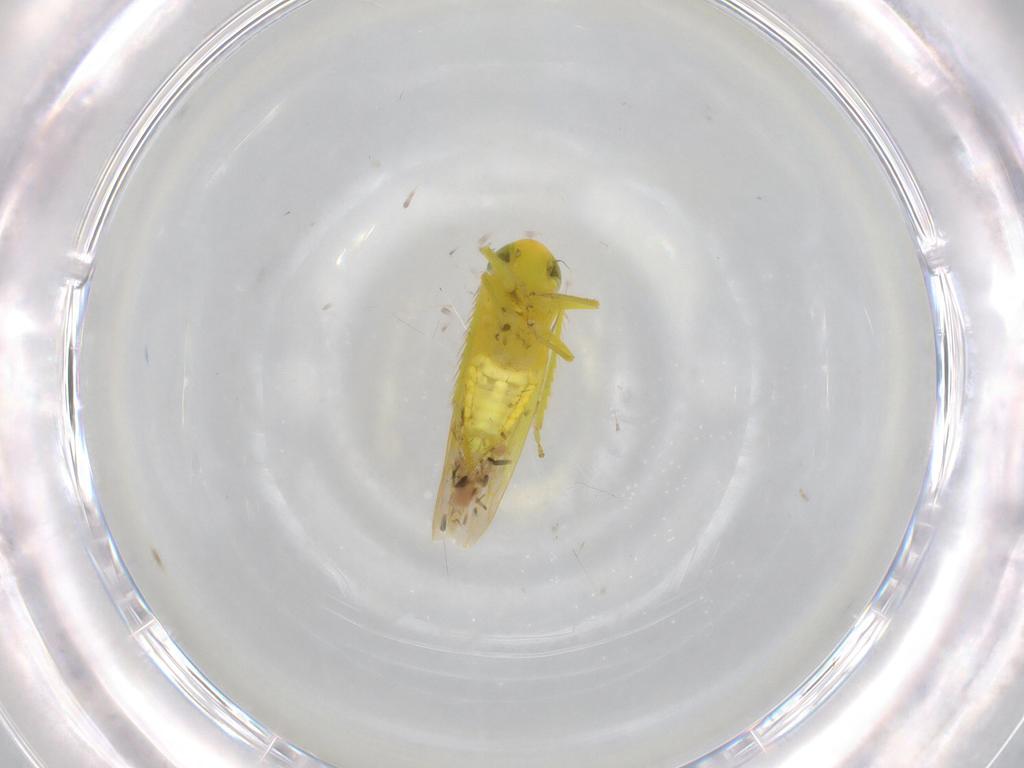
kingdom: Animalia
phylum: Arthropoda
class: Insecta
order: Hemiptera
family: Cicadellidae
